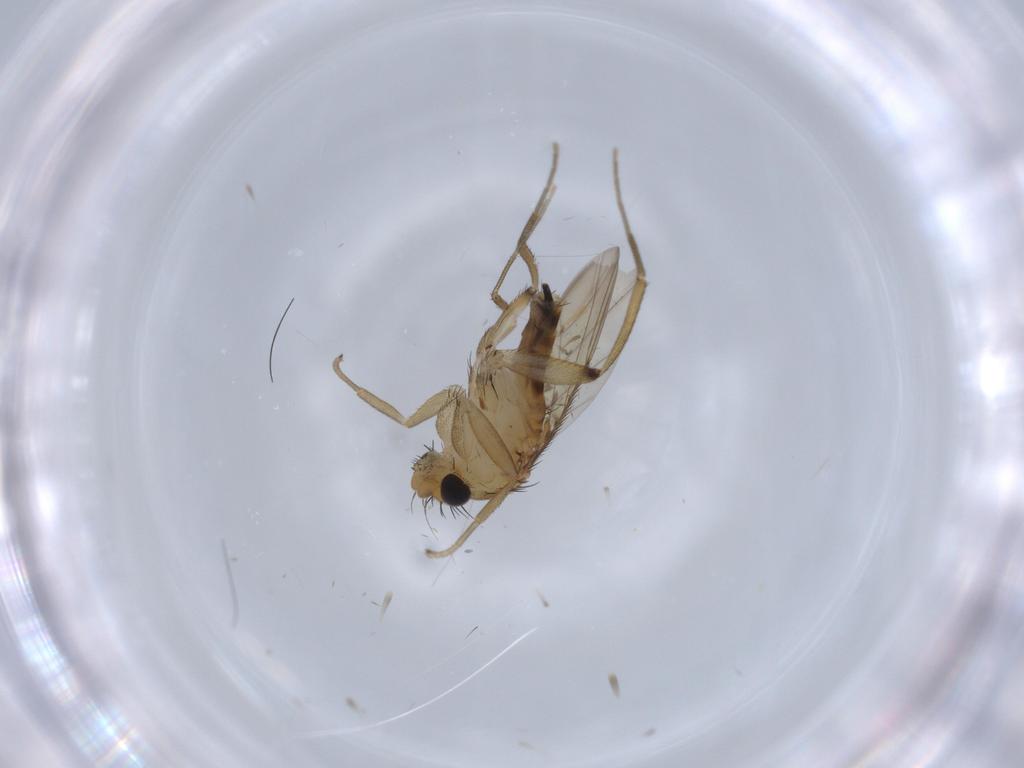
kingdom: Animalia
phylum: Arthropoda
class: Insecta
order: Diptera
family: Phoridae
